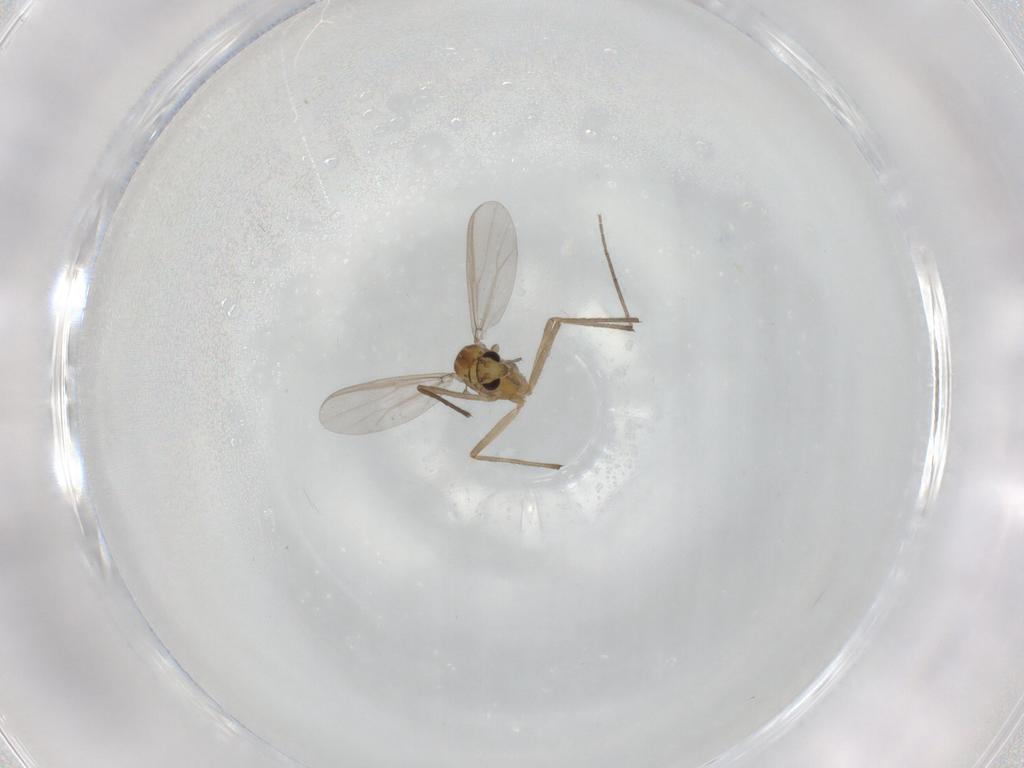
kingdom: Animalia
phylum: Arthropoda
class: Insecta
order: Diptera
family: Chironomidae
